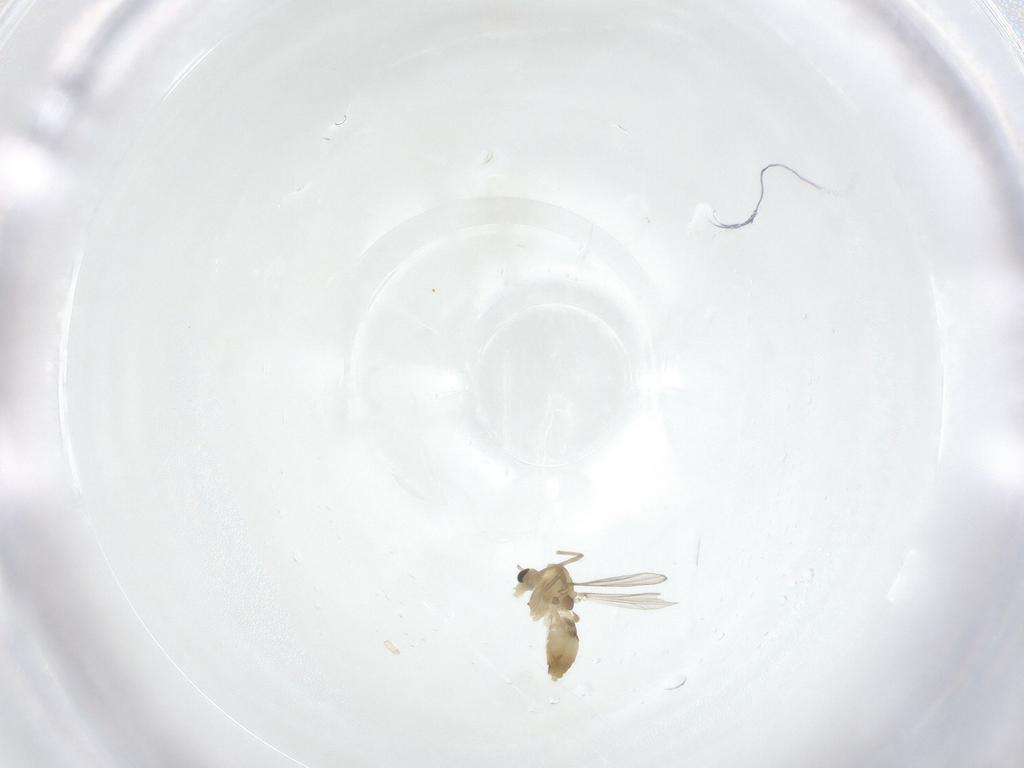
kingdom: Animalia
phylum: Arthropoda
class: Insecta
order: Diptera
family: Chironomidae
